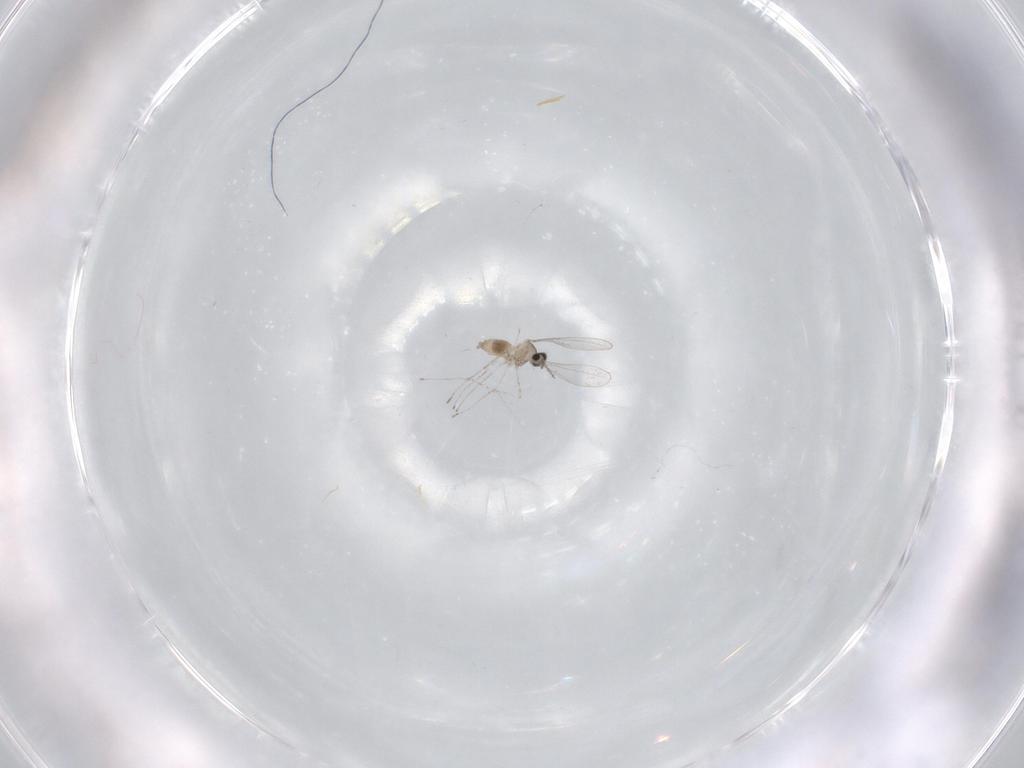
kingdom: Animalia
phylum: Arthropoda
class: Insecta
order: Diptera
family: Cecidomyiidae
